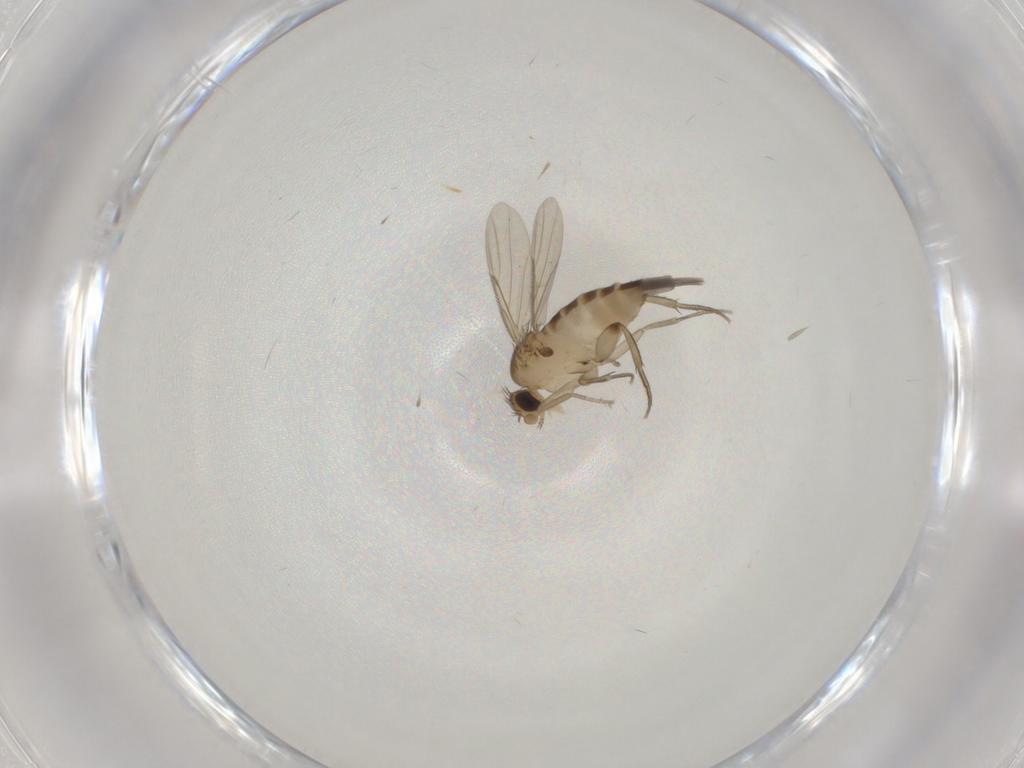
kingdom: Animalia
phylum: Arthropoda
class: Insecta
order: Diptera
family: Phoridae
